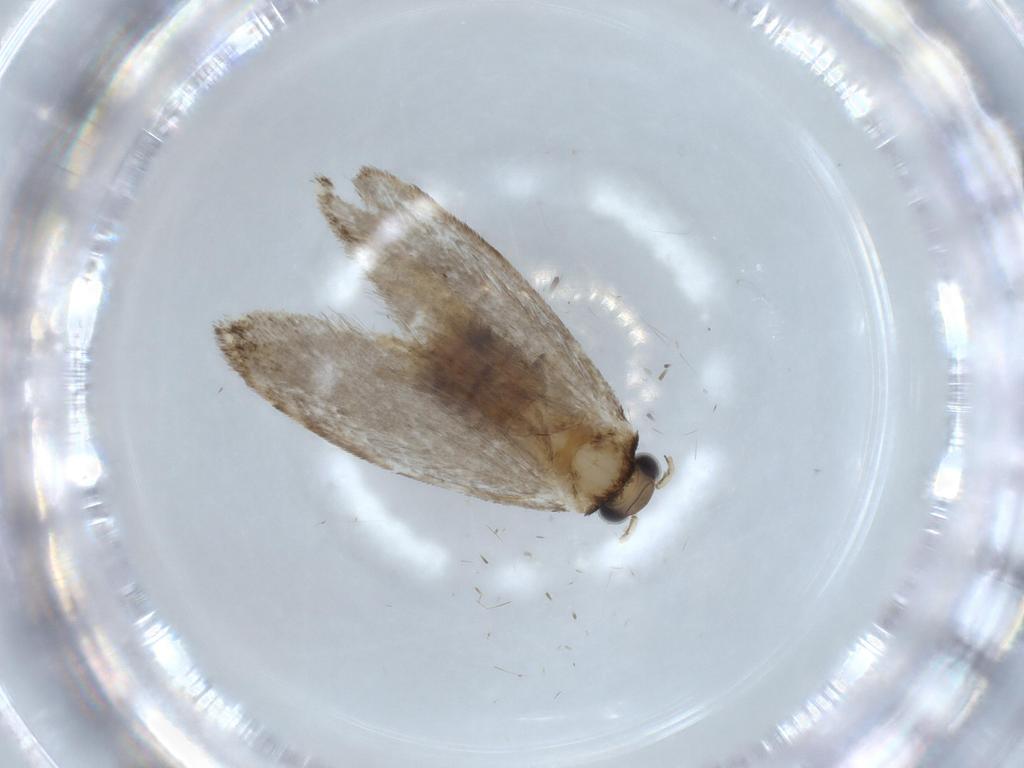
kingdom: Animalia
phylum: Arthropoda
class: Insecta
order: Lepidoptera
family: Tineidae
